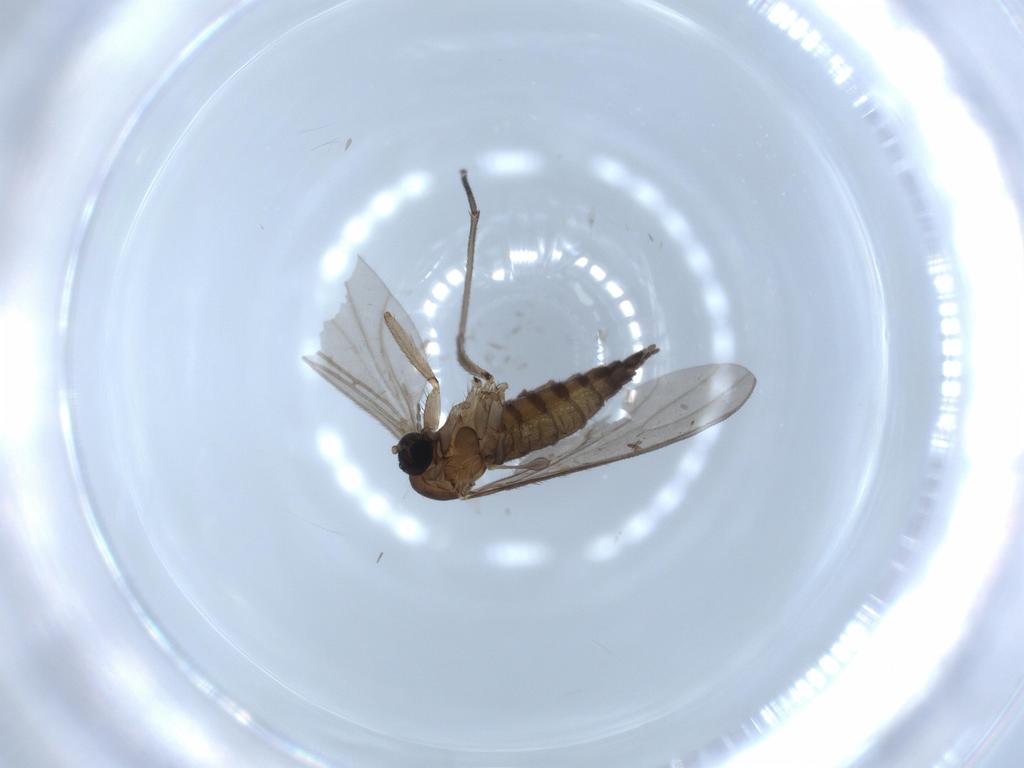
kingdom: Animalia
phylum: Arthropoda
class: Insecta
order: Diptera
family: Sciaridae
